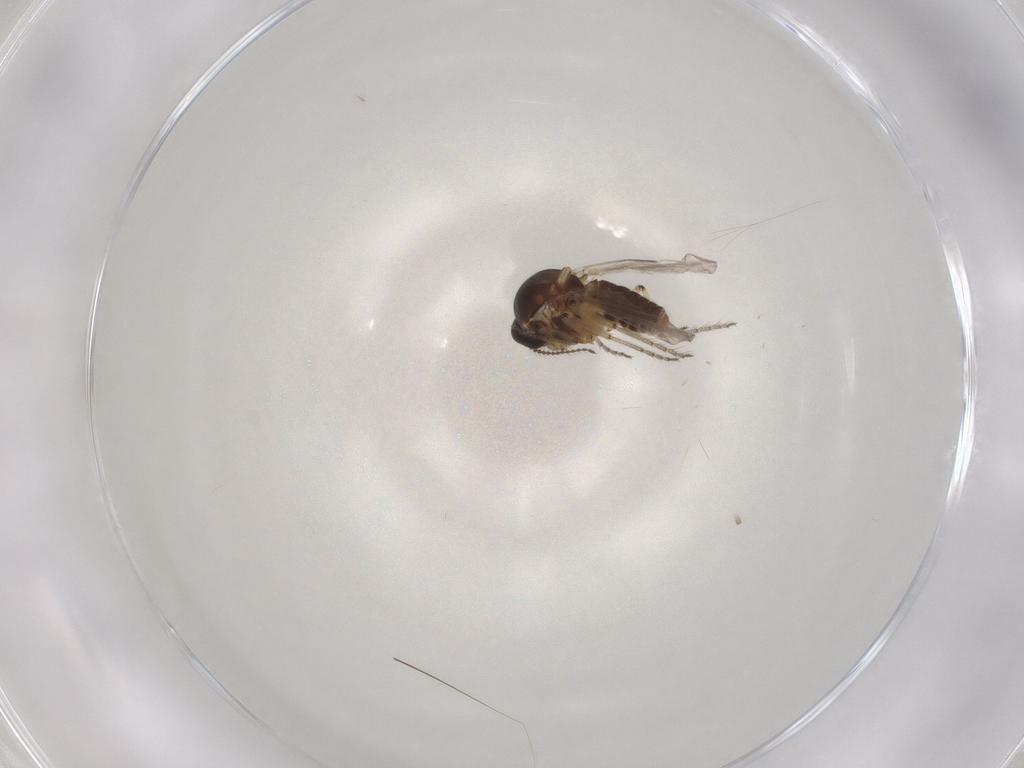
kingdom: Animalia
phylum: Arthropoda
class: Insecta
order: Diptera
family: Ceratopogonidae
